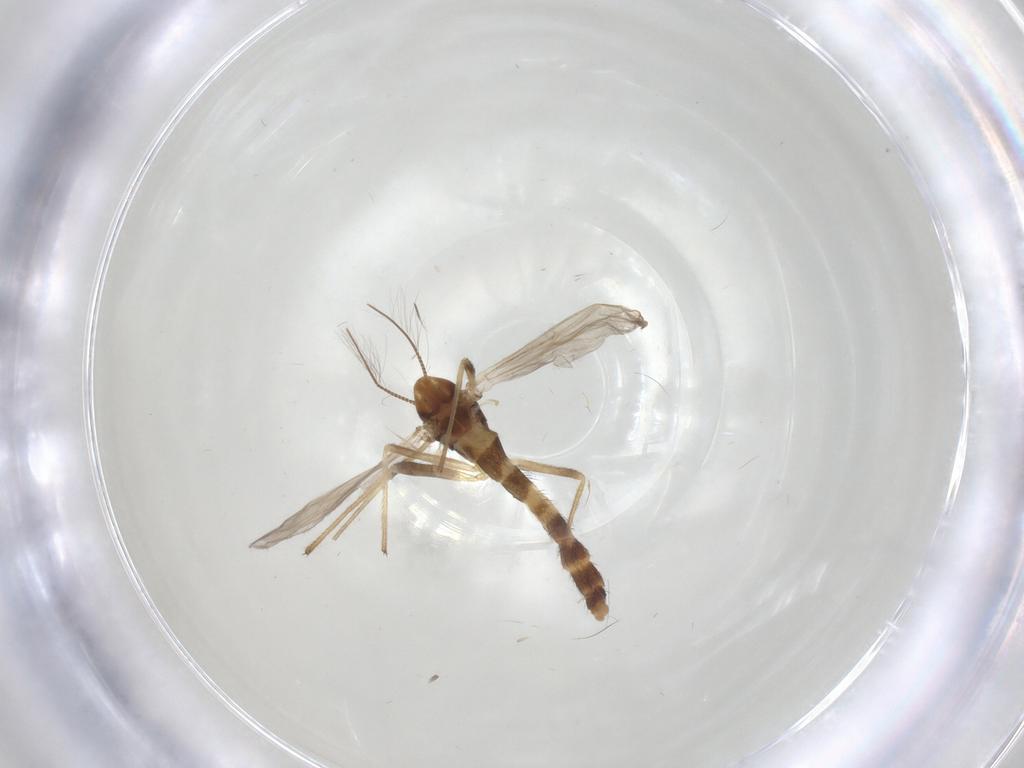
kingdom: Animalia
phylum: Arthropoda
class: Insecta
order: Diptera
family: Chironomidae
